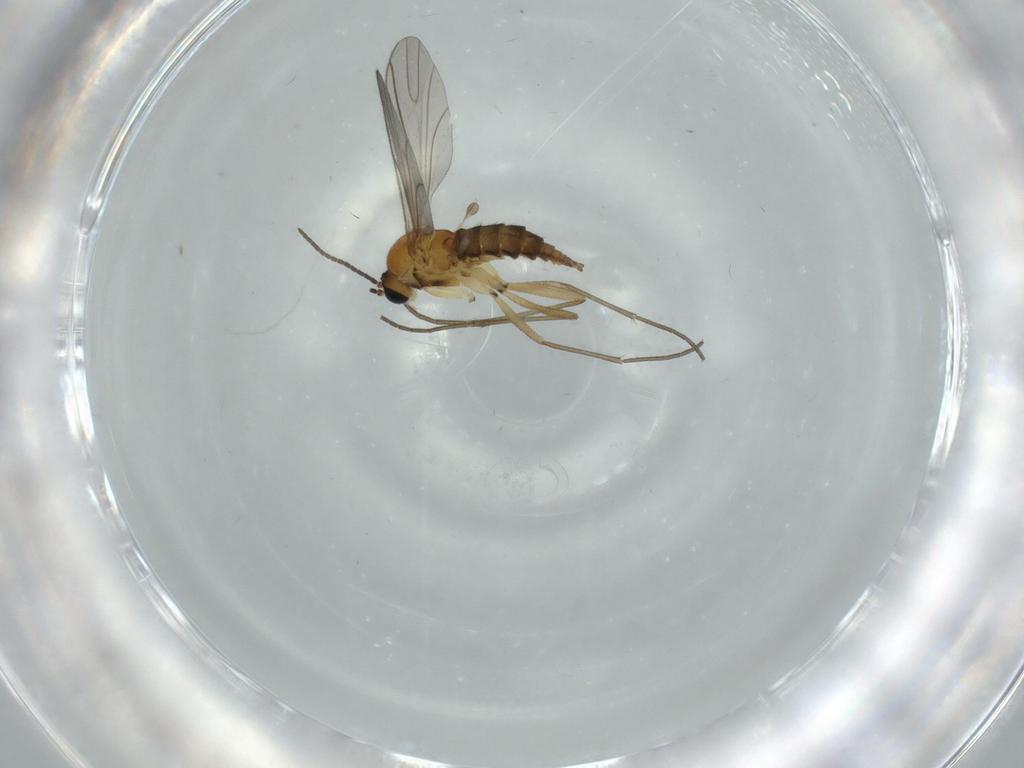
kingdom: Animalia
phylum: Arthropoda
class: Insecta
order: Diptera
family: Sciaridae
